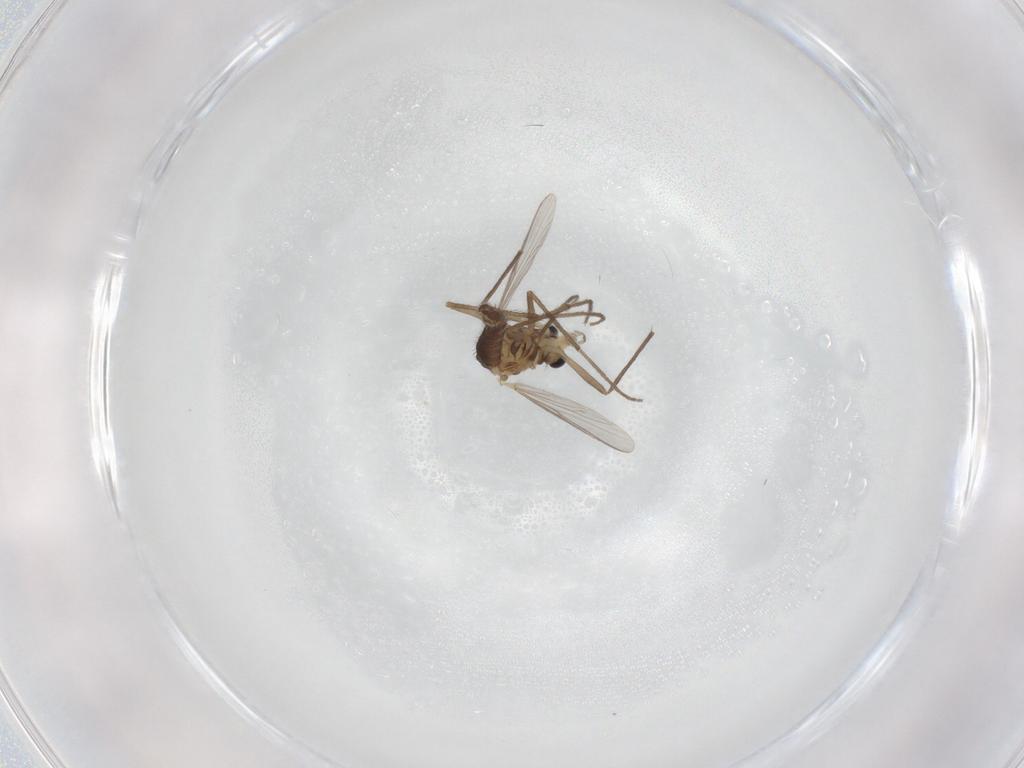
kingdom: Animalia
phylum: Arthropoda
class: Insecta
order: Diptera
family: Chironomidae
